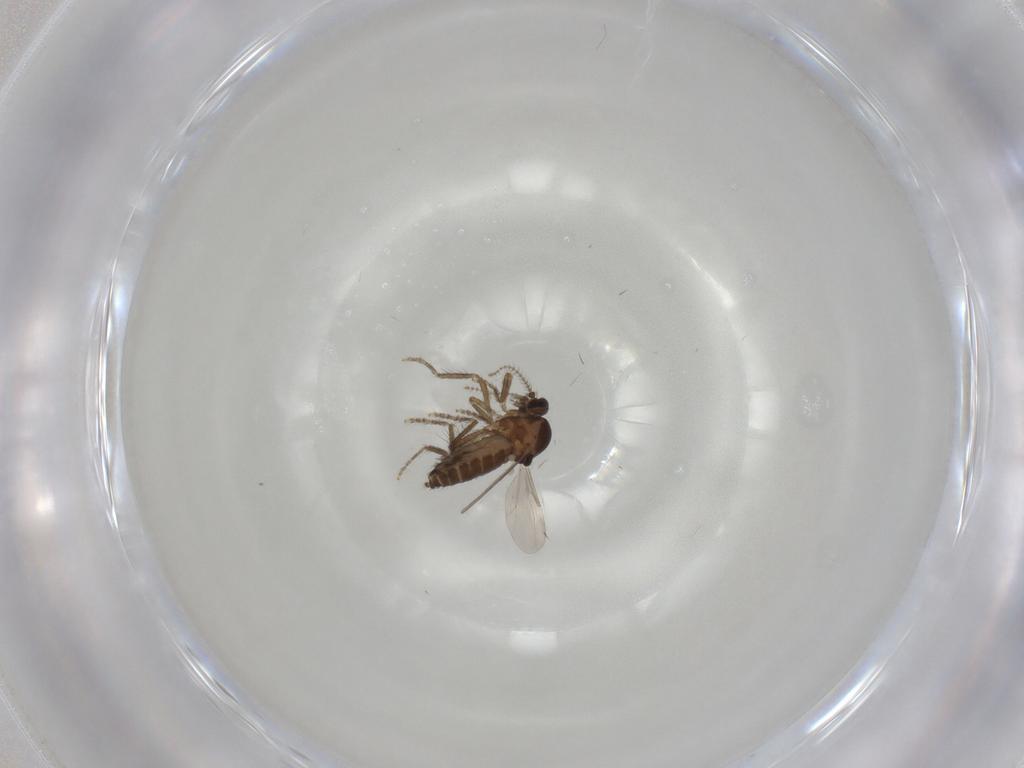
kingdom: Animalia
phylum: Arthropoda
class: Insecta
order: Diptera
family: Ceratopogonidae
